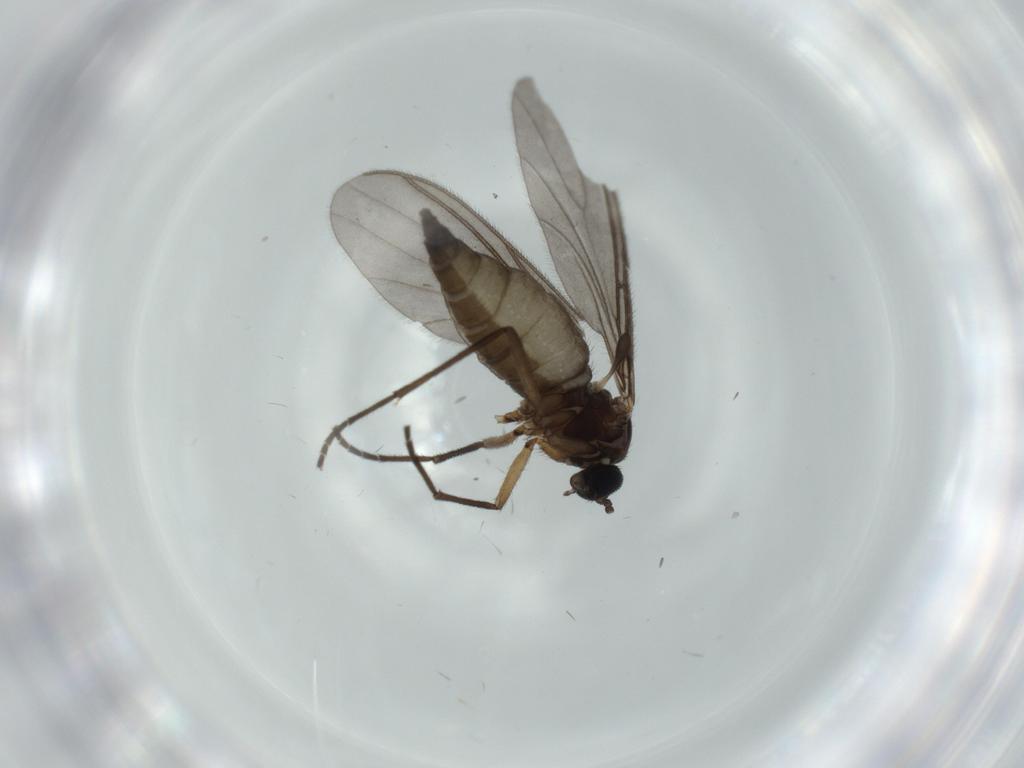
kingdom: Animalia
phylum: Arthropoda
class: Insecta
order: Diptera
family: Sciaridae
